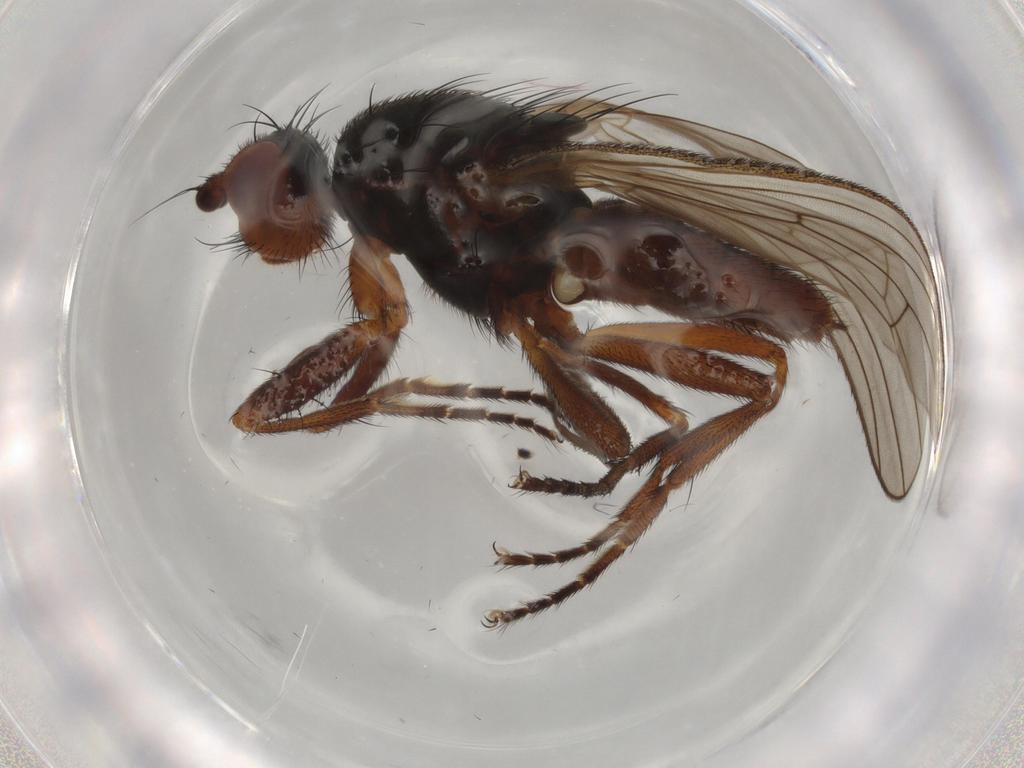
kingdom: Animalia
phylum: Arthropoda
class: Insecta
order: Diptera
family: Heleomyzidae
